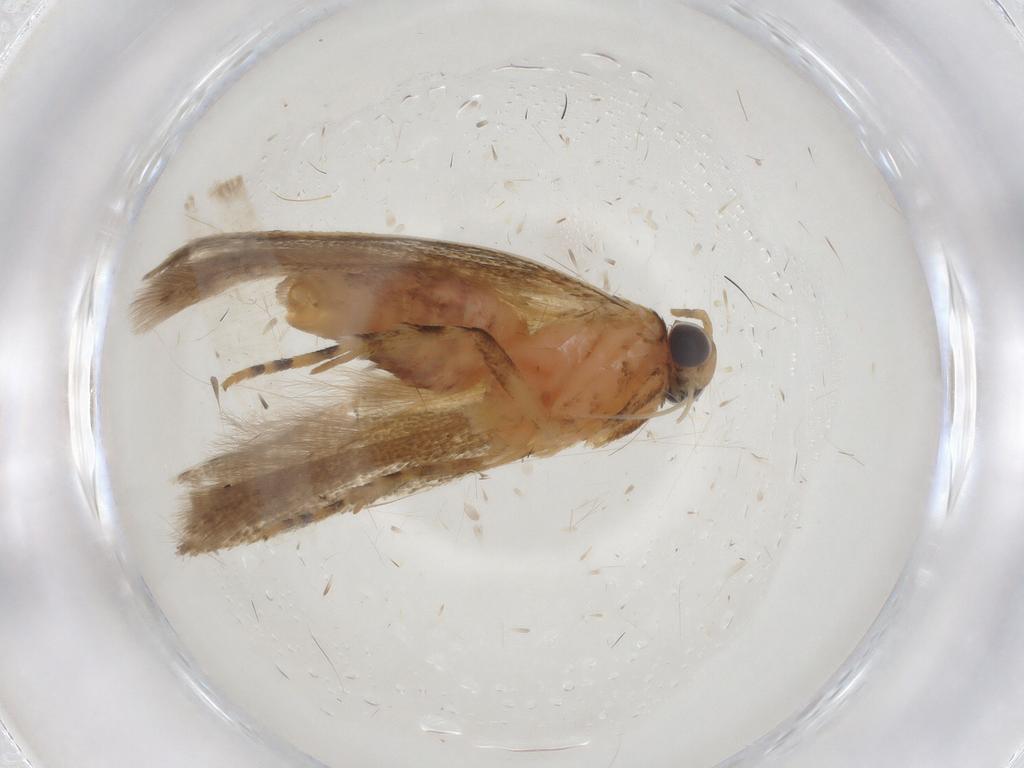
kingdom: Animalia
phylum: Arthropoda
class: Insecta
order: Lepidoptera
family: Gelechiidae
